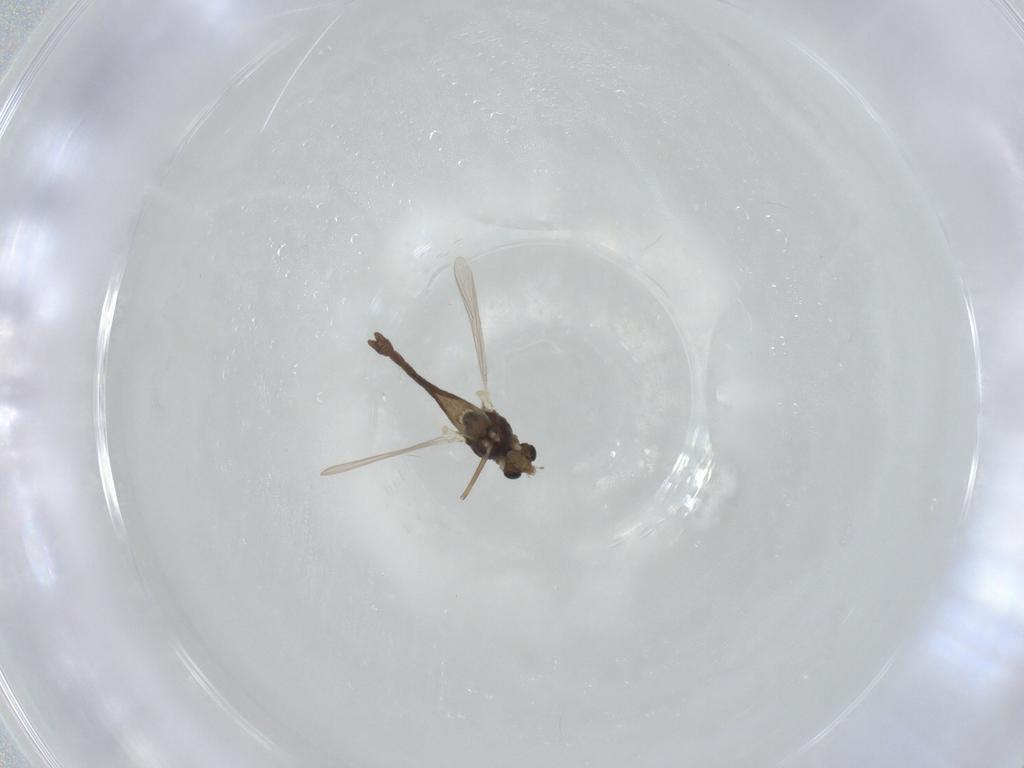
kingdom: Animalia
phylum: Arthropoda
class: Insecta
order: Diptera
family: Chironomidae
